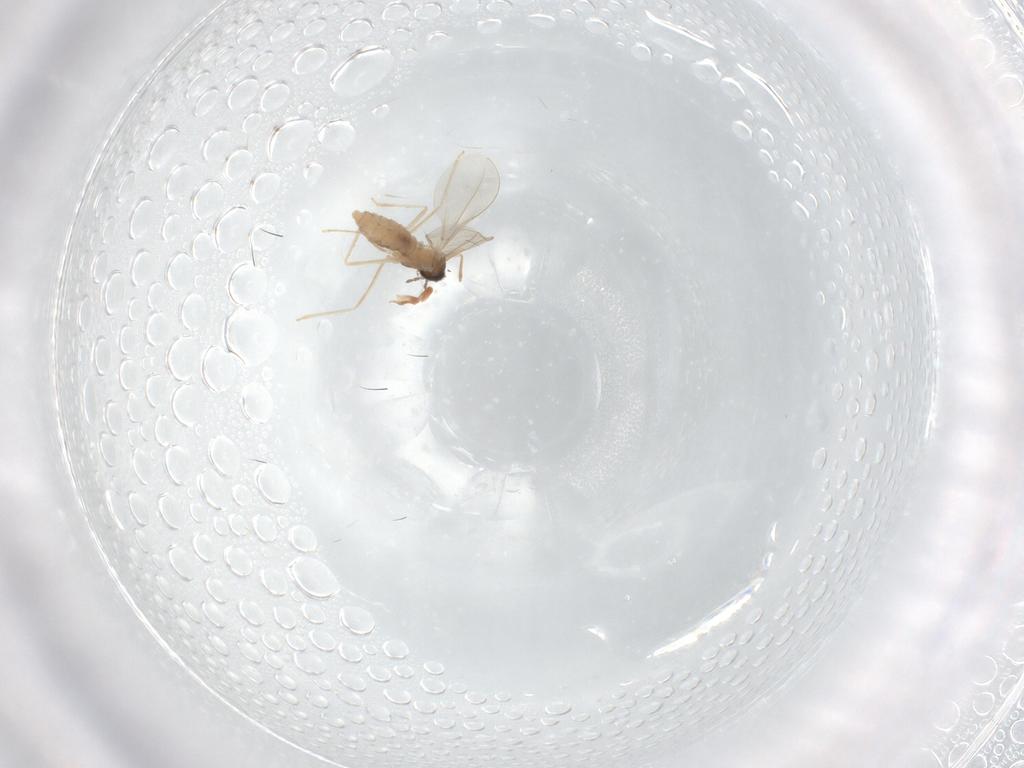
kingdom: Animalia
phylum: Arthropoda
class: Insecta
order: Diptera
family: Cecidomyiidae
